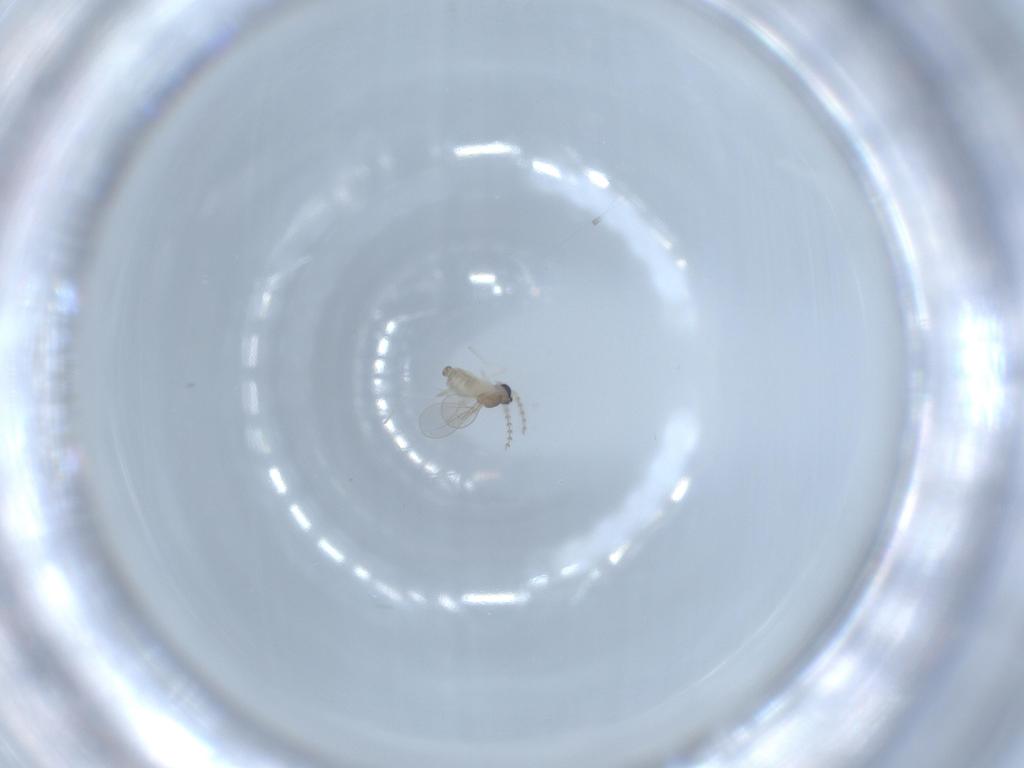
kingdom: Animalia
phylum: Arthropoda
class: Insecta
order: Diptera
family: Cecidomyiidae
